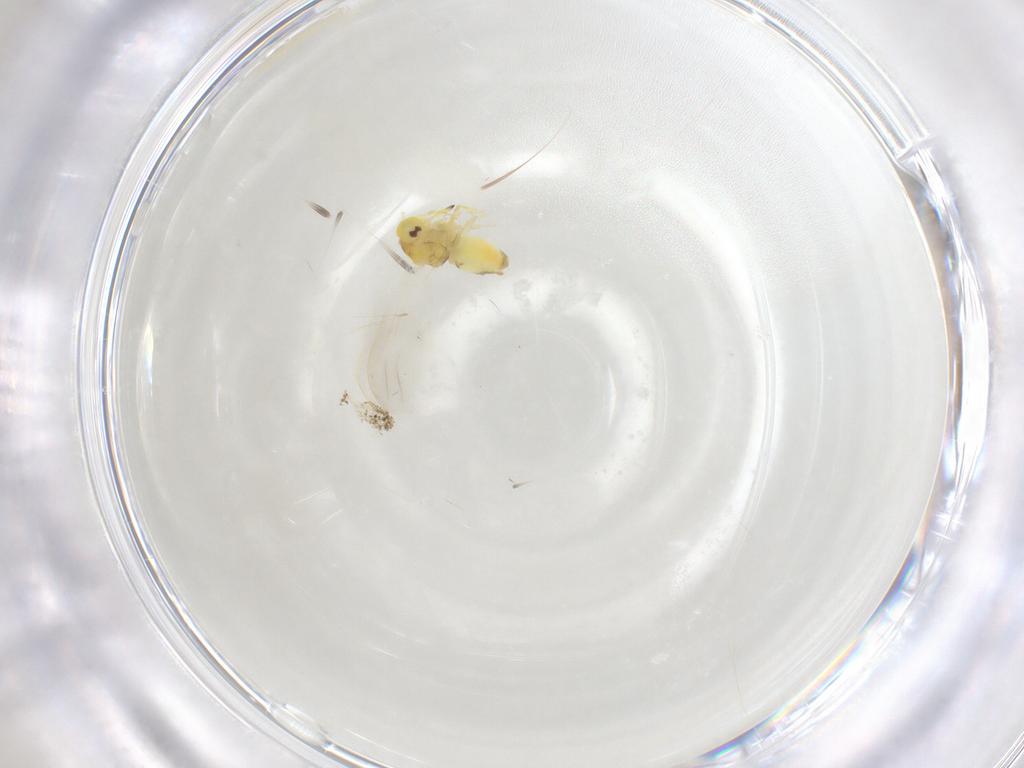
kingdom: Animalia
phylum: Arthropoda
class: Insecta
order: Hemiptera
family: Aleyrodidae
